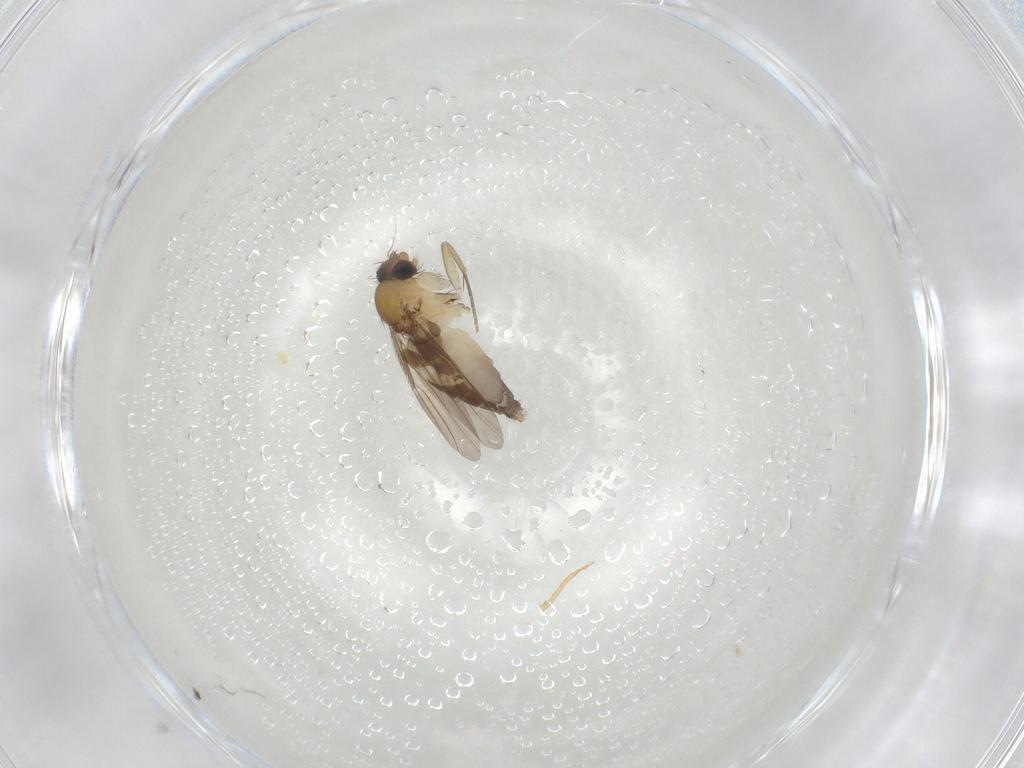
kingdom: Animalia
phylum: Arthropoda
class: Insecta
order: Diptera
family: Phoridae
